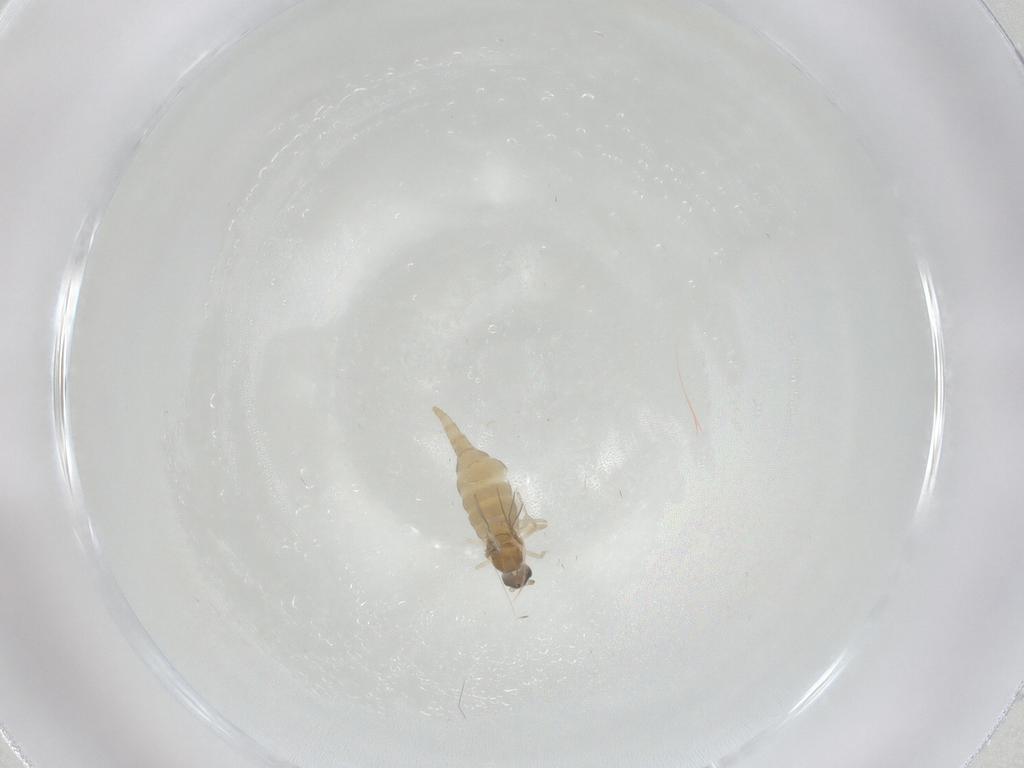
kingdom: Animalia
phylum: Arthropoda
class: Insecta
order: Diptera
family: Cecidomyiidae
